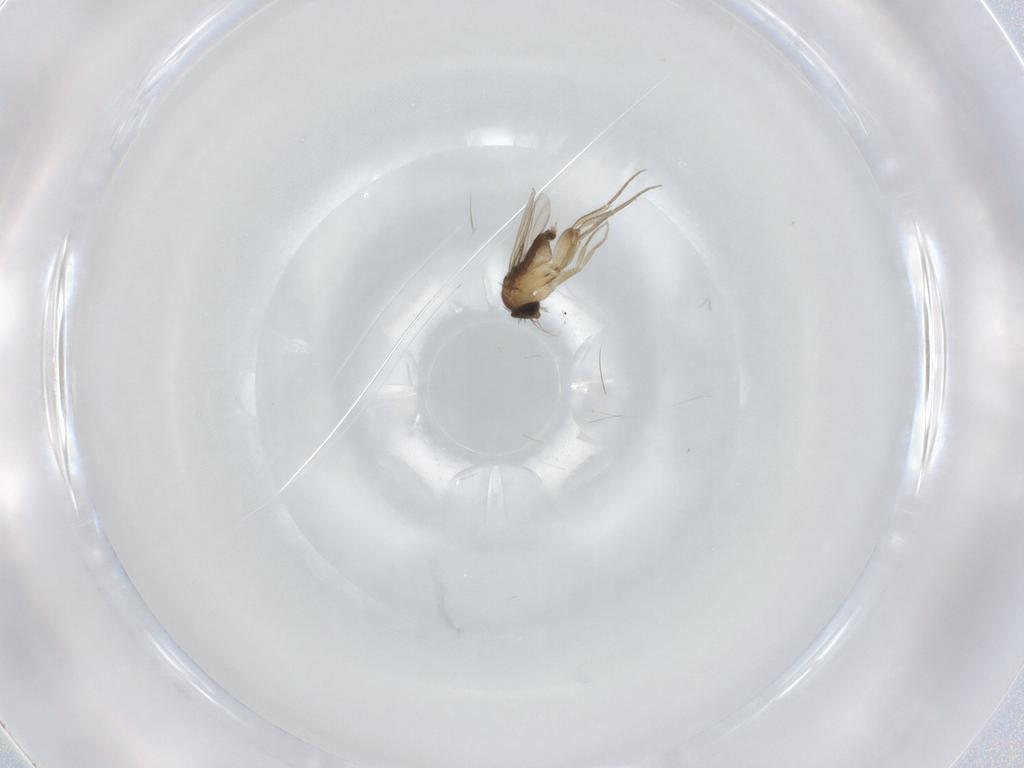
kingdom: Animalia
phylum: Arthropoda
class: Insecta
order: Diptera
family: Phoridae
